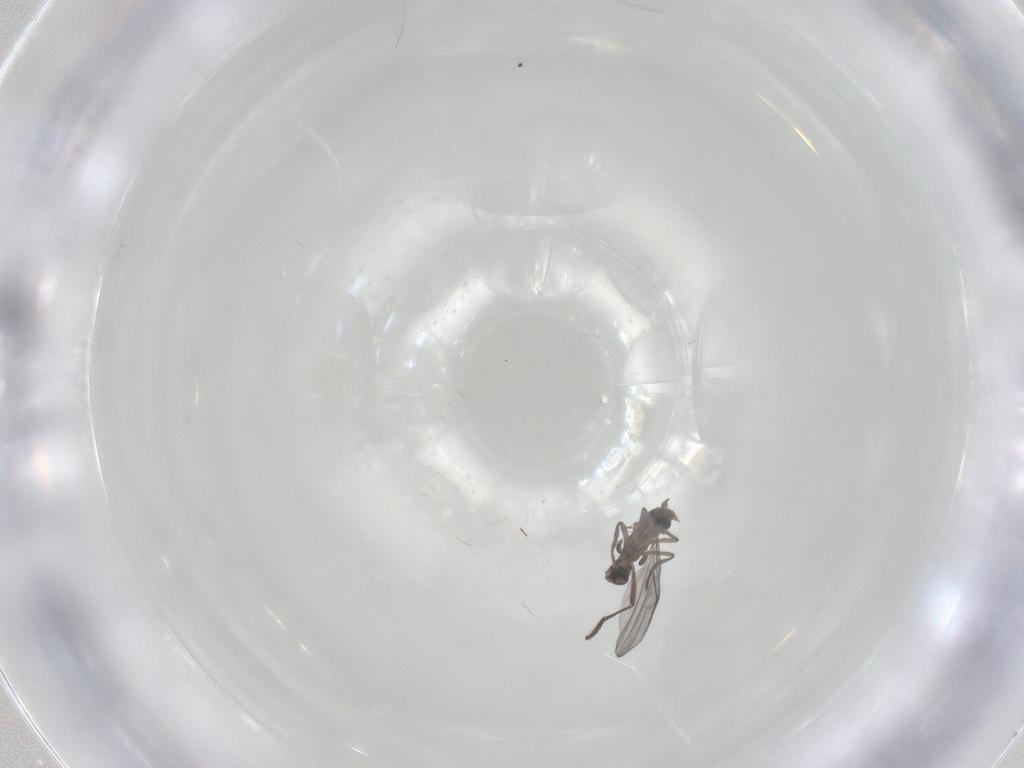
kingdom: Animalia
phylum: Arthropoda
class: Insecta
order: Diptera
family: Phoridae
